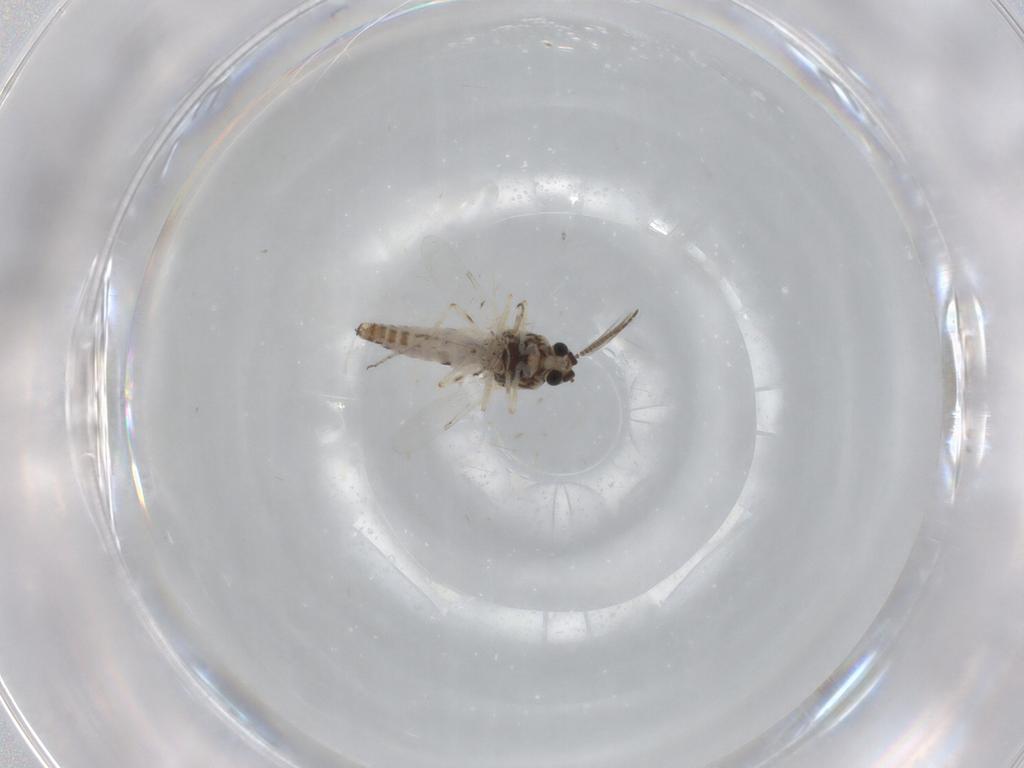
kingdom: Animalia
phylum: Arthropoda
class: Insecta
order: Diptera
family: Ceratopogonidae
